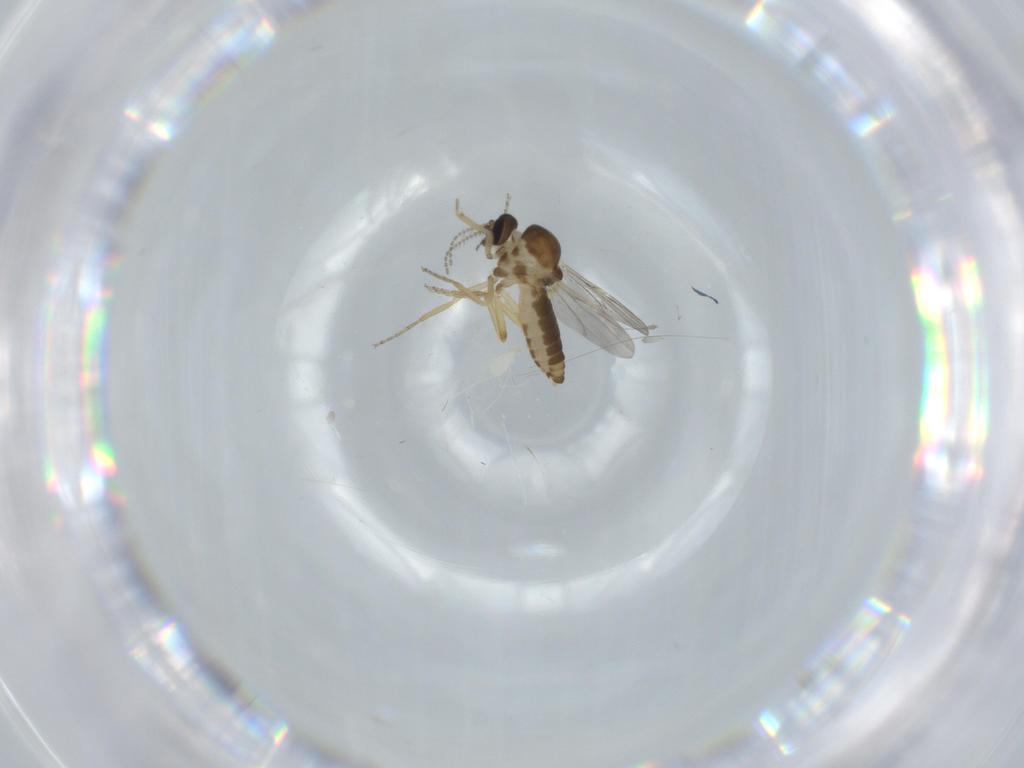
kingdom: Animalia
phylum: Arthropoda
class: Insecta
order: Diptera
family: Ceratopogonidae
